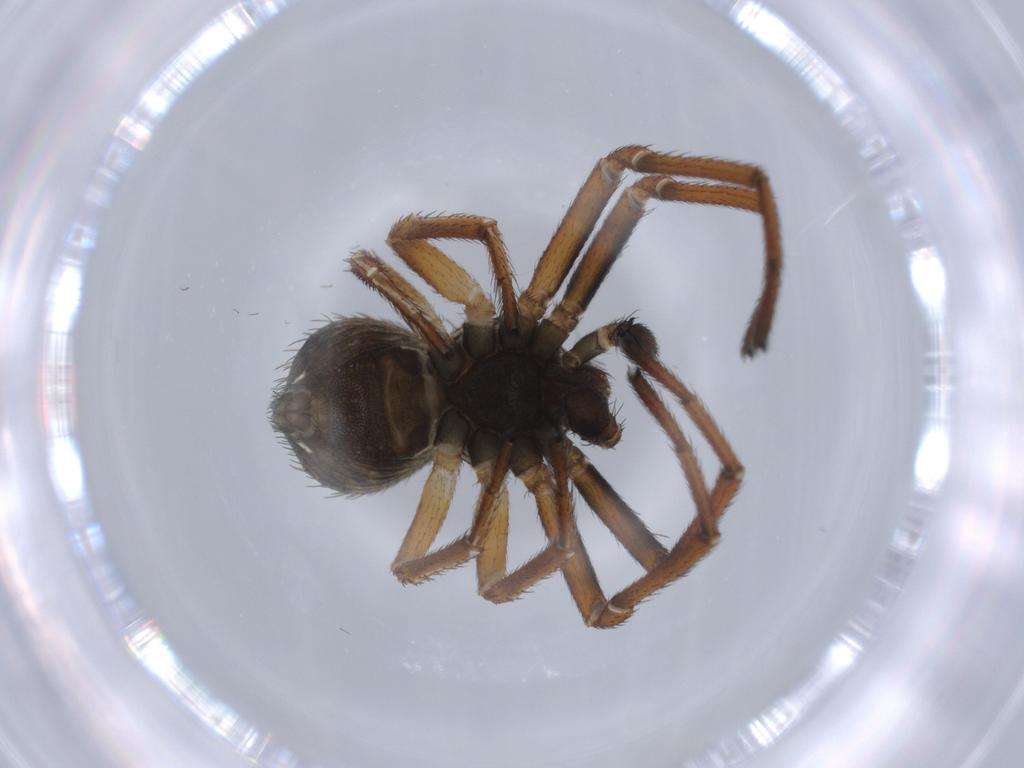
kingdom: Animalia
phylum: Arthropoda
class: Arachnida
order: Araneae
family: Thomisidae
